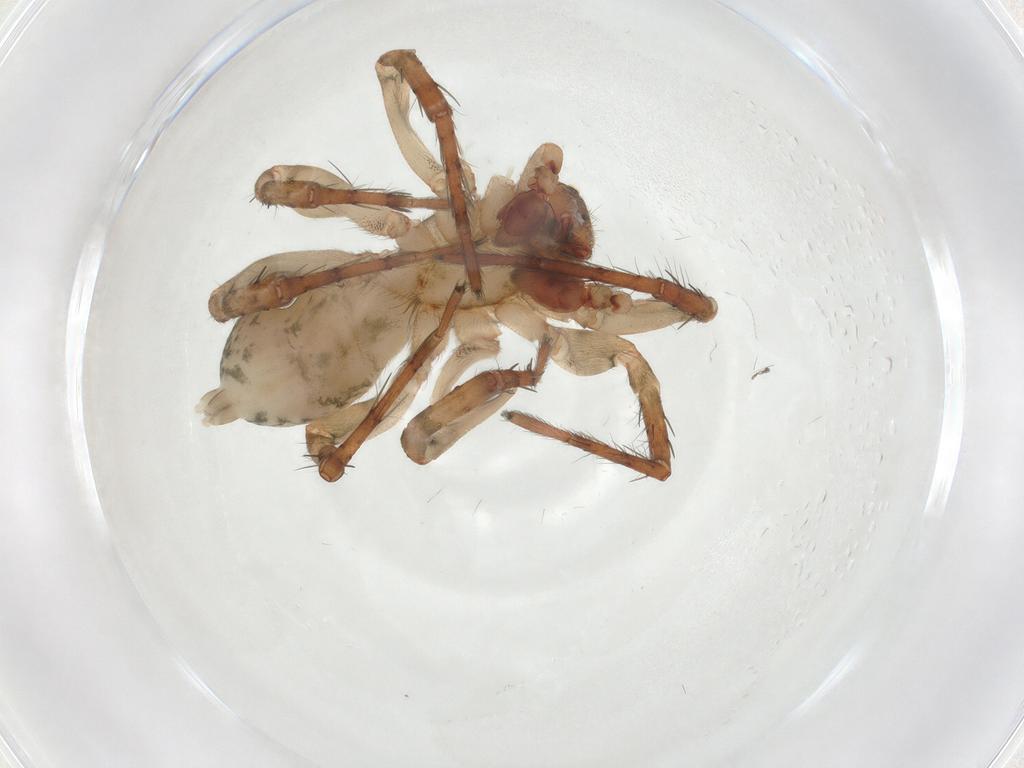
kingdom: Animalia
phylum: Arthropoda
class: Arachnida
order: Araneae
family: Anyphaenidae
